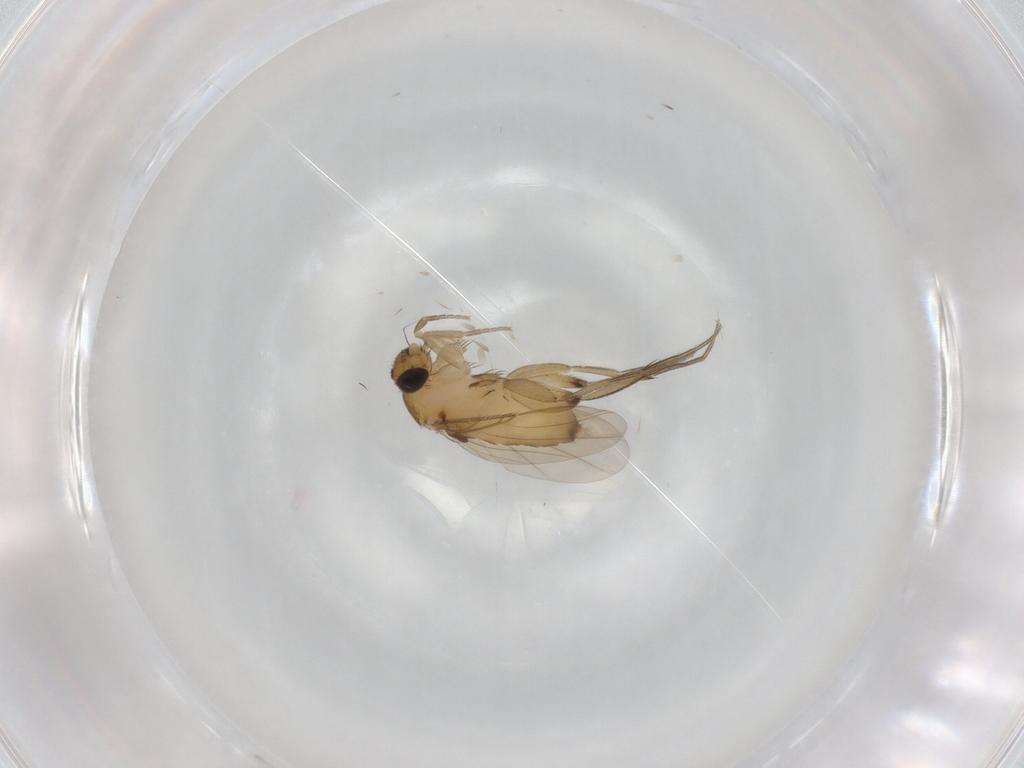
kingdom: Animalia
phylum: Arthropoda
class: Insecta
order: Diptera
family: Phoridae
